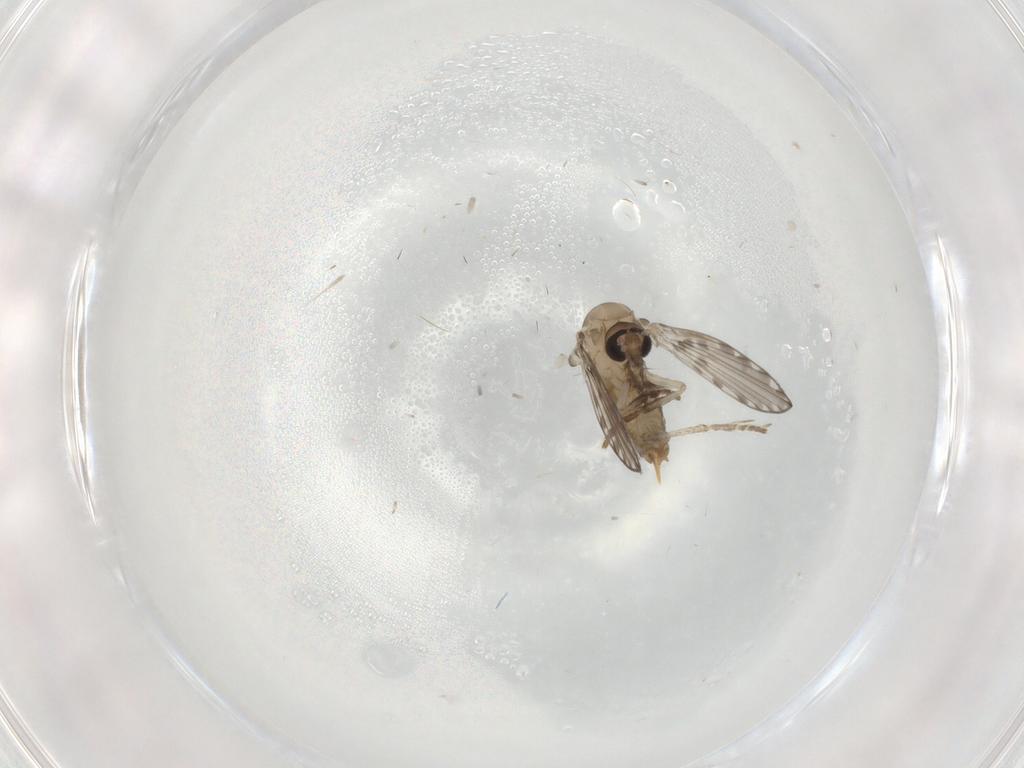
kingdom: Animalia
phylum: Arthropoda
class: Insecta
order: Diptera
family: Psychodidae
